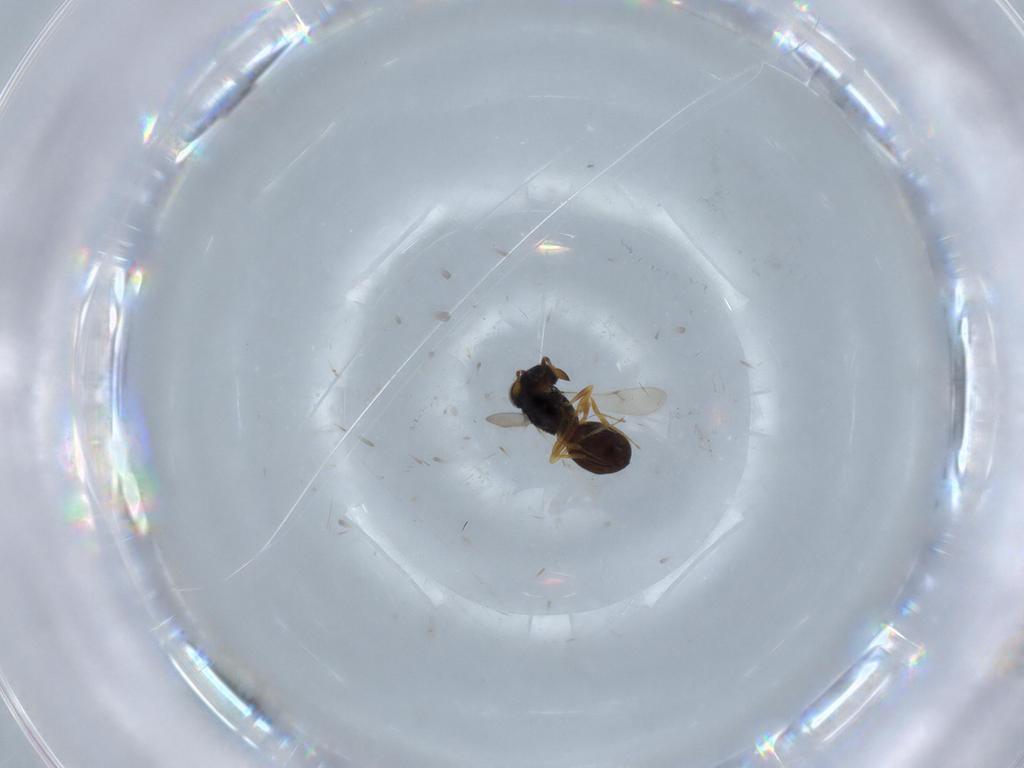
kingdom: Animalia
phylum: Arthropoda
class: Insecta
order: Hymenoptera
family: Scelionidae
